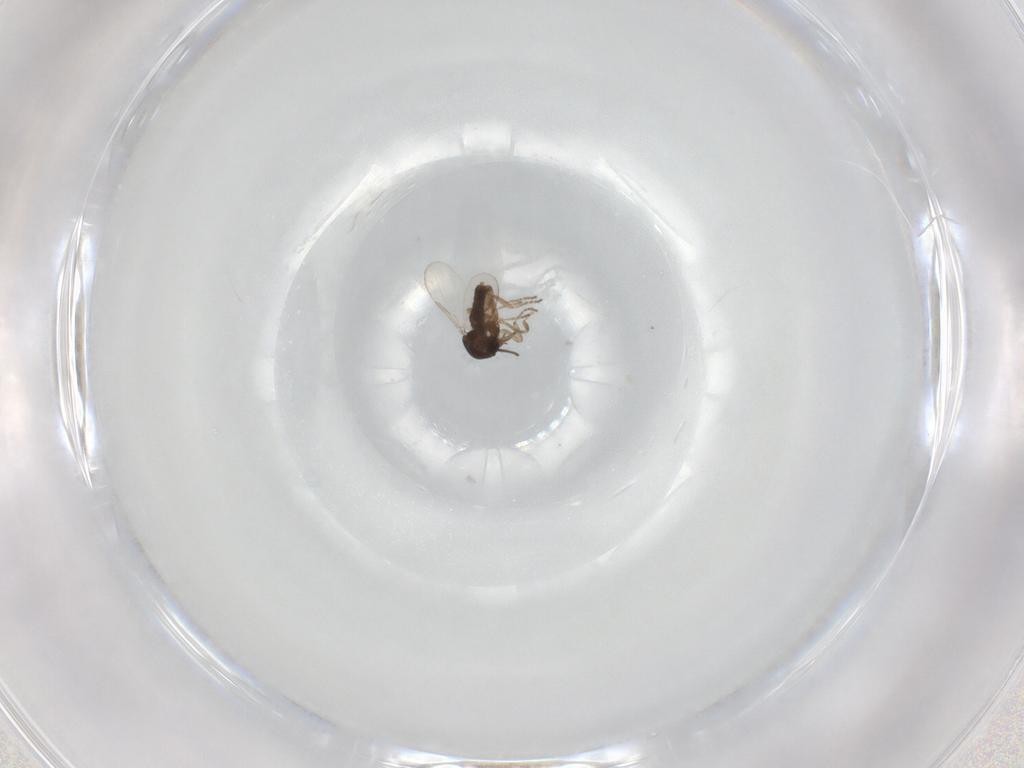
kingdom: Animalia
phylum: Arthropoda
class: Insecta
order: Diptera
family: Ceratopogonidae
